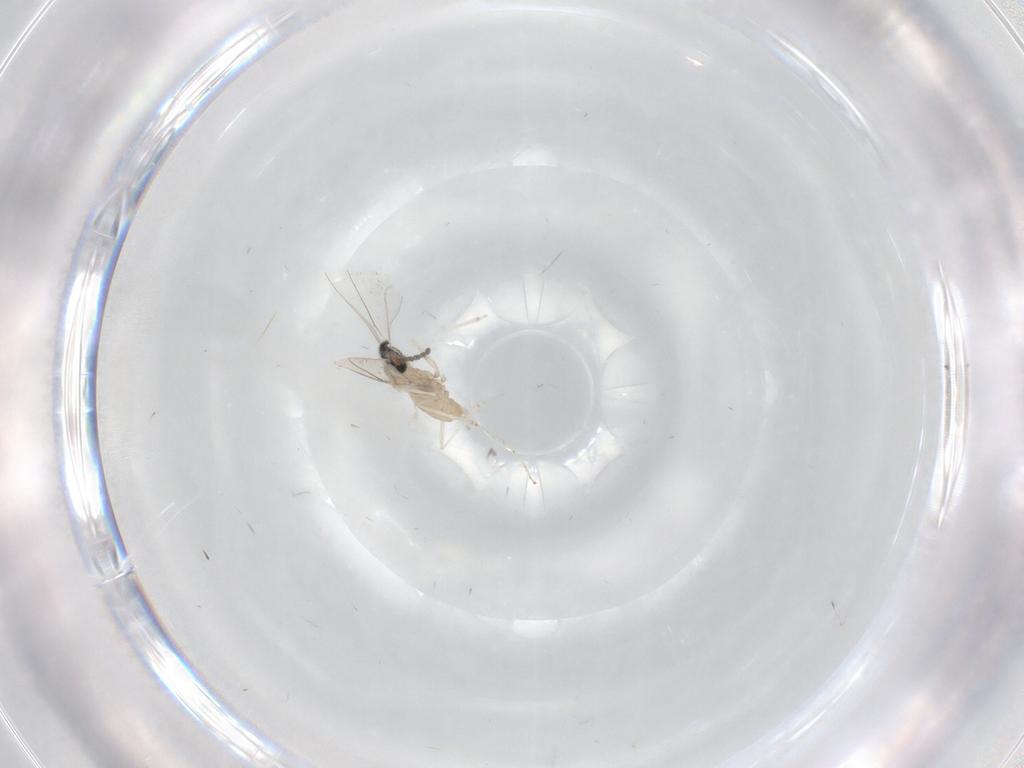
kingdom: Animalia
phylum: Arthropoda
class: Insecta
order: Diptera
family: Cecidomyiidae
